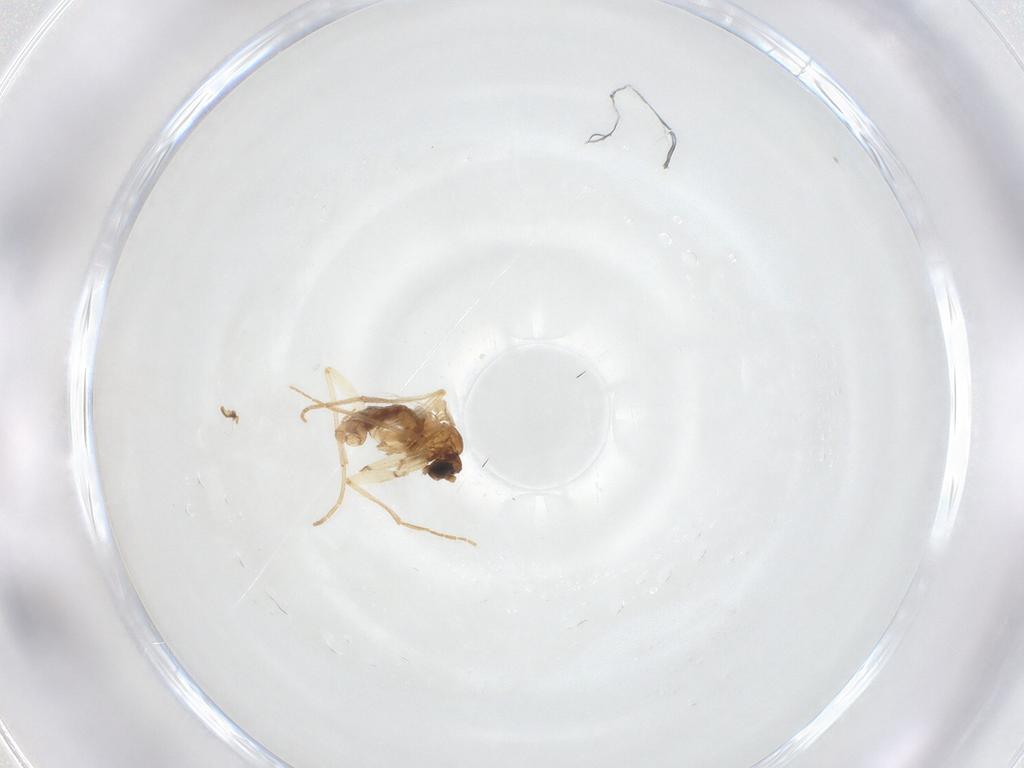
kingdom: Animalia
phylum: Arthropoda
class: Insecta
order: Diptera
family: Sciaridae
